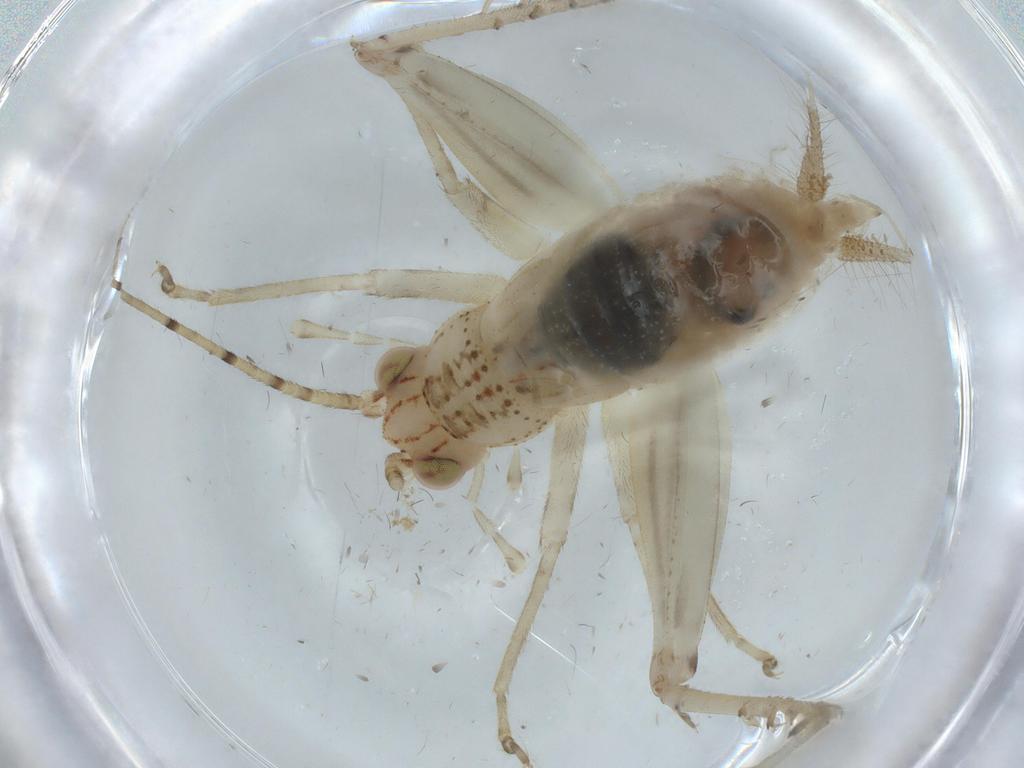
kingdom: Animalia
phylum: Arthropoda
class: Insecta
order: Orthoptera
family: Trigonidiidae
